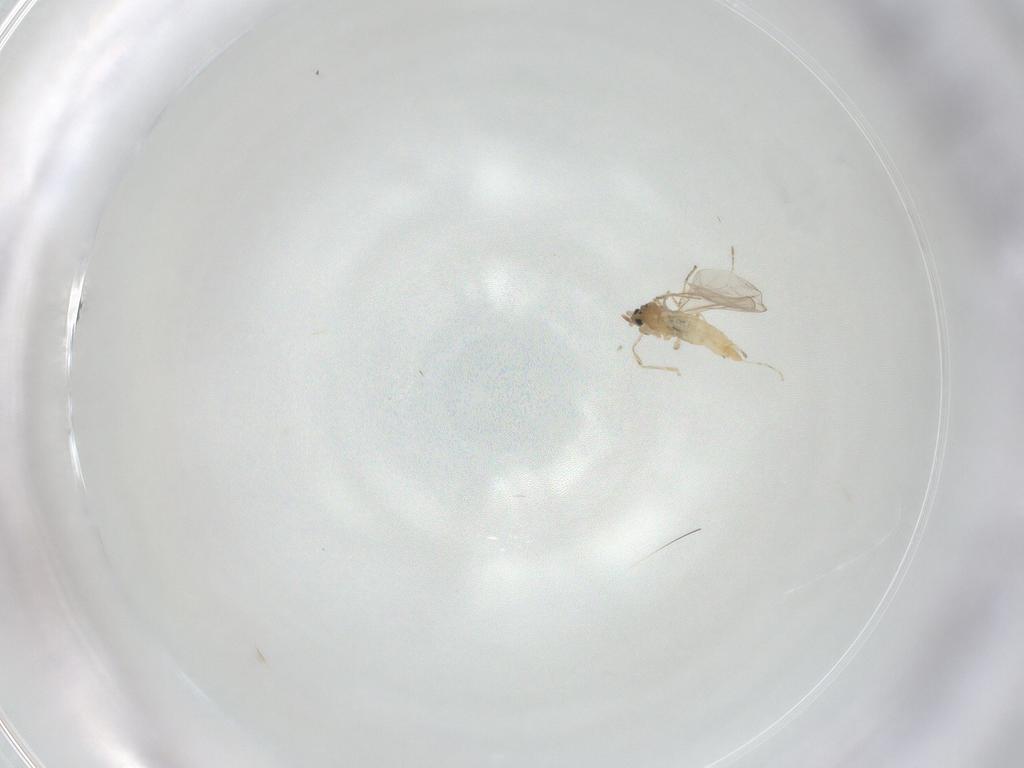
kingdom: Animalia
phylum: Arthropoda
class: Insecta
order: Diptera
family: Cecidomyiidae
